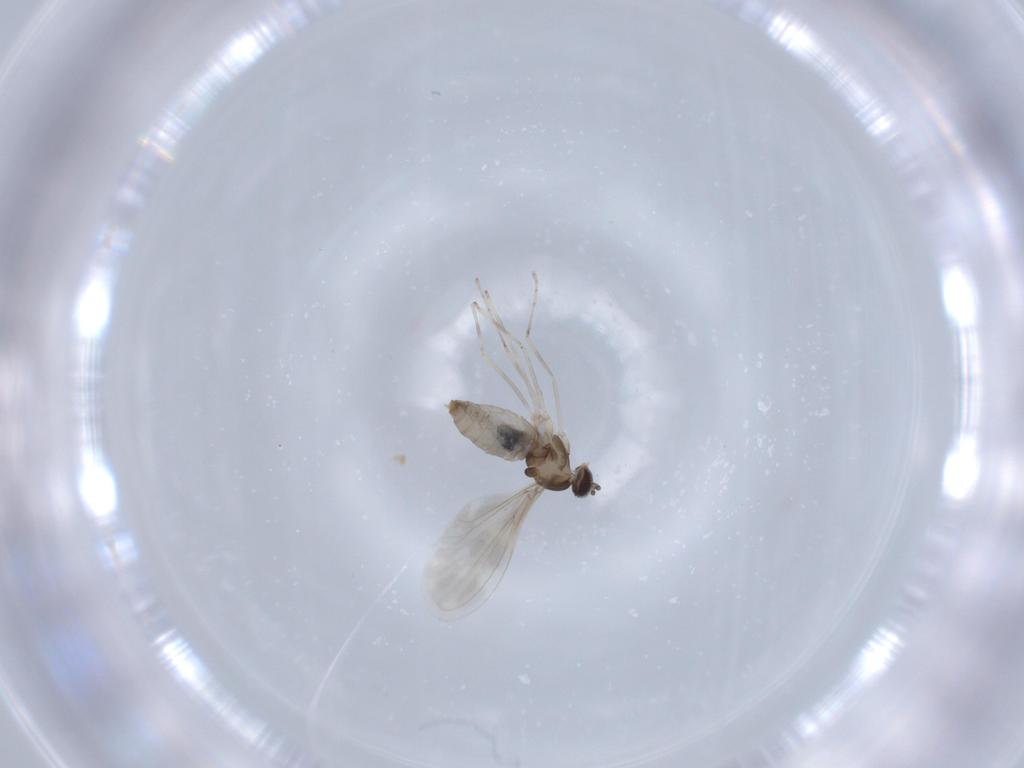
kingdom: Animalia
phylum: Arthropoda
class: Insecta
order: Diptera
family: Cecidomyiidae
